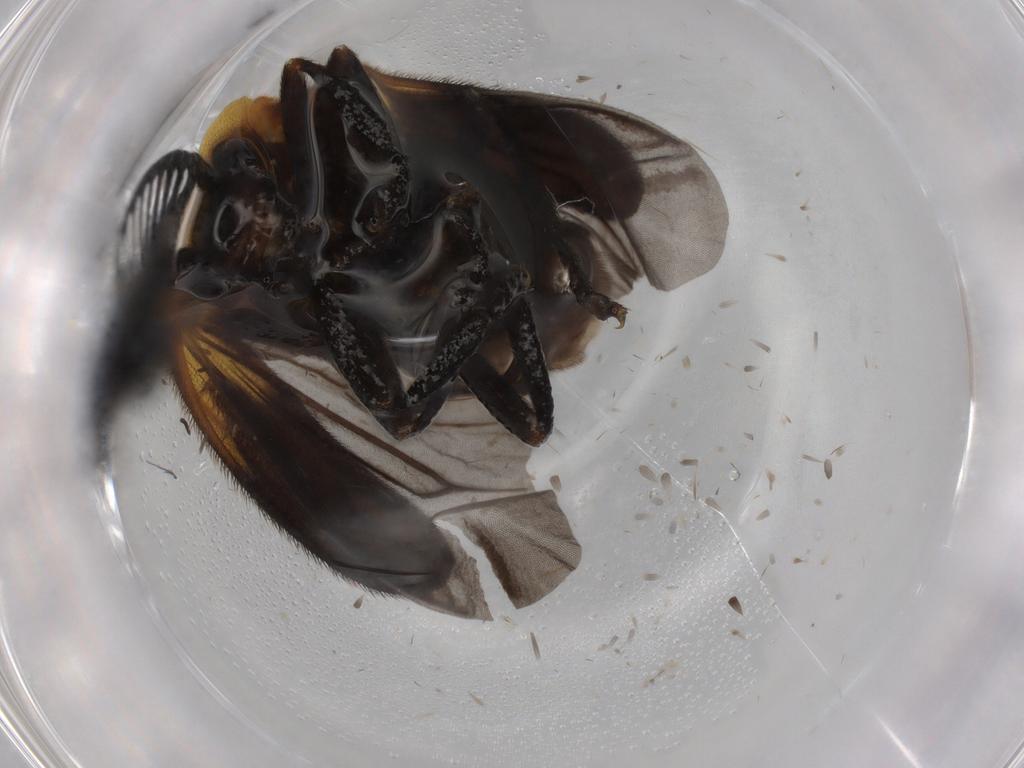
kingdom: Animalia
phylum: Arthropoda
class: Insecta
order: Coleoptera
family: Lampyridae
